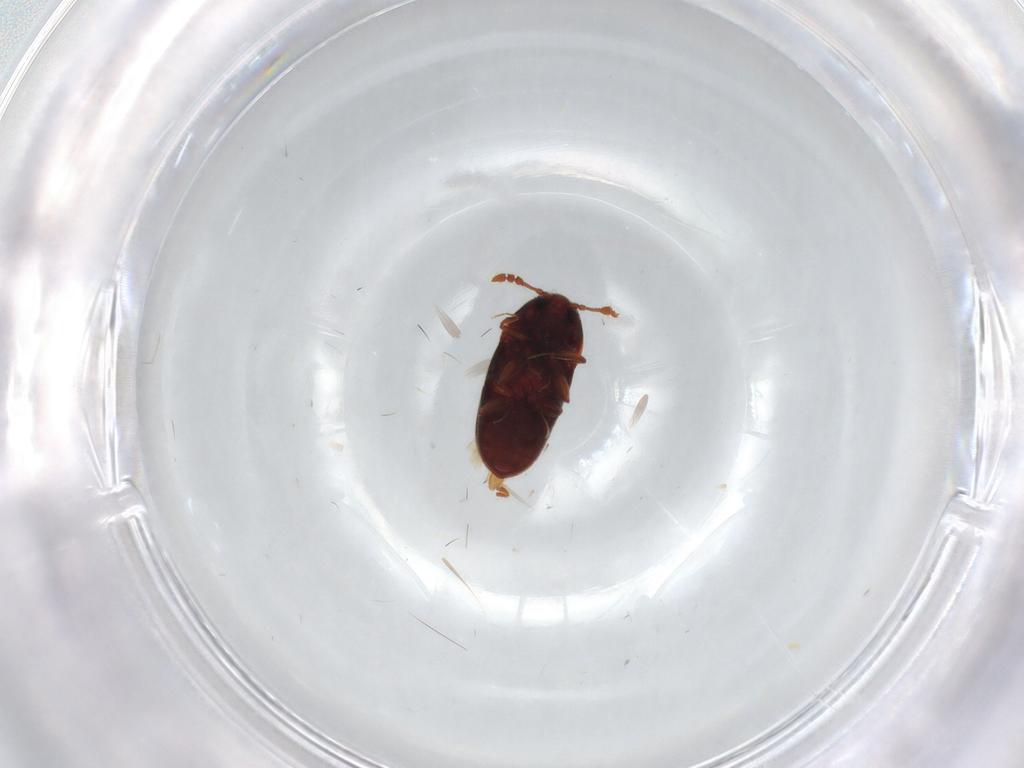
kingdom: Animalia
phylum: Arthropoda
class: Insecta
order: Coleoptera
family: Throscidae
